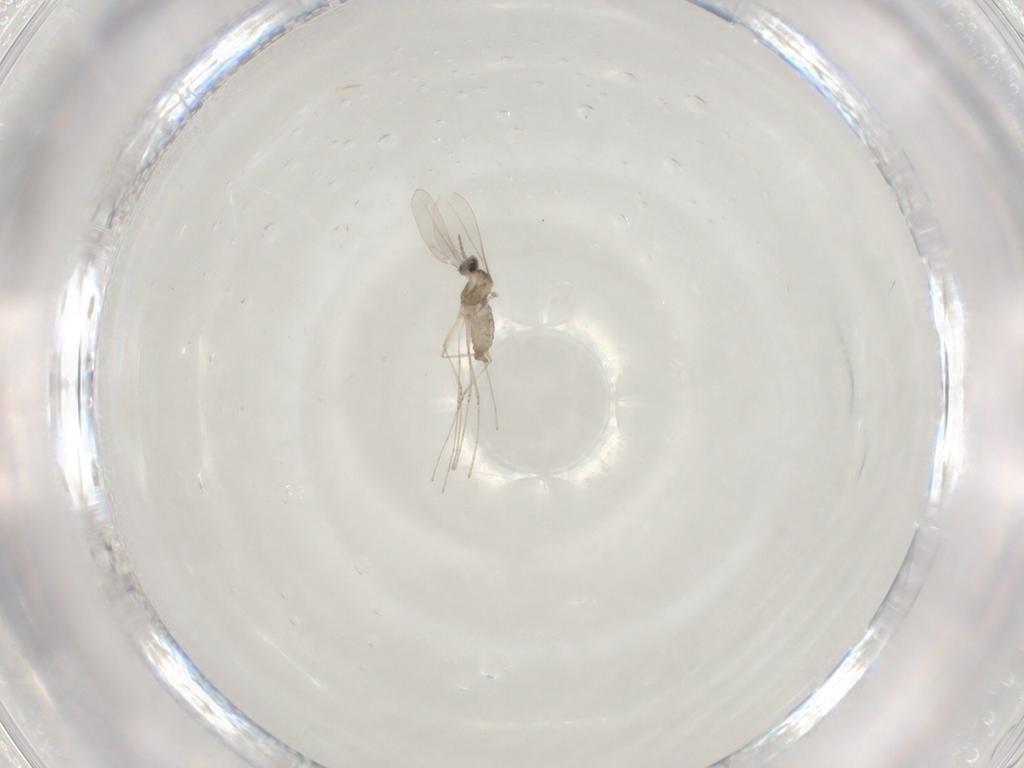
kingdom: Animalia
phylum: Arthropoda
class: Insecta
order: Diptera
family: Cecidomyiidae
